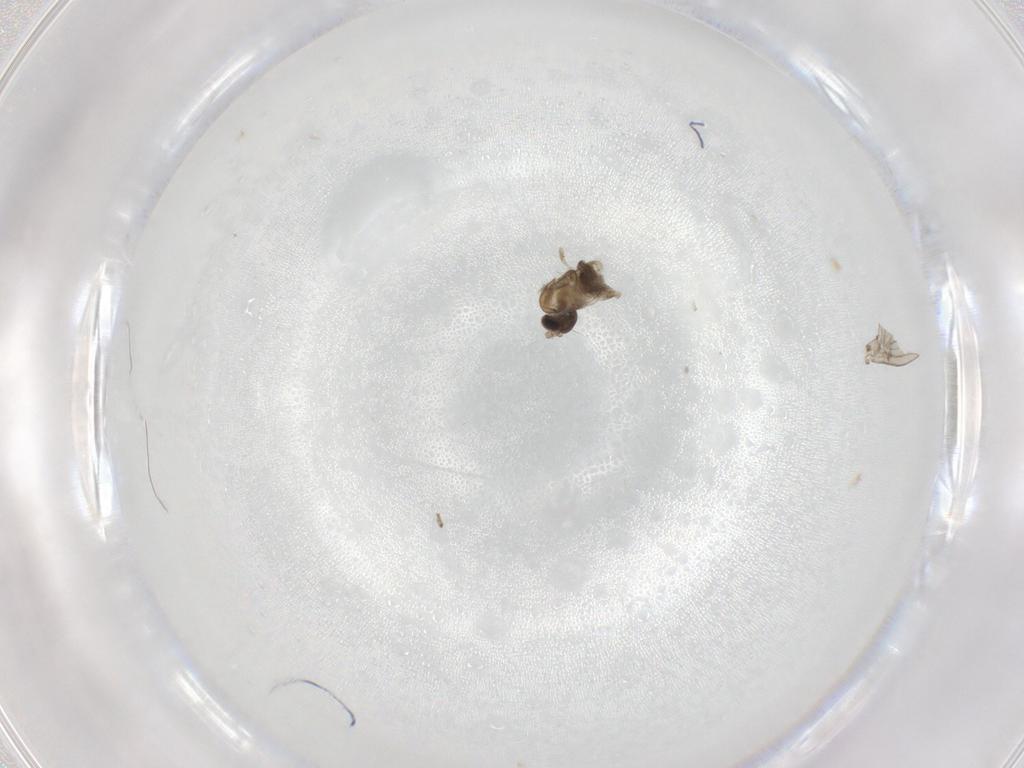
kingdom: Animalia
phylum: Arthropoda
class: Insecta
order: Diptera
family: Psychodidae
